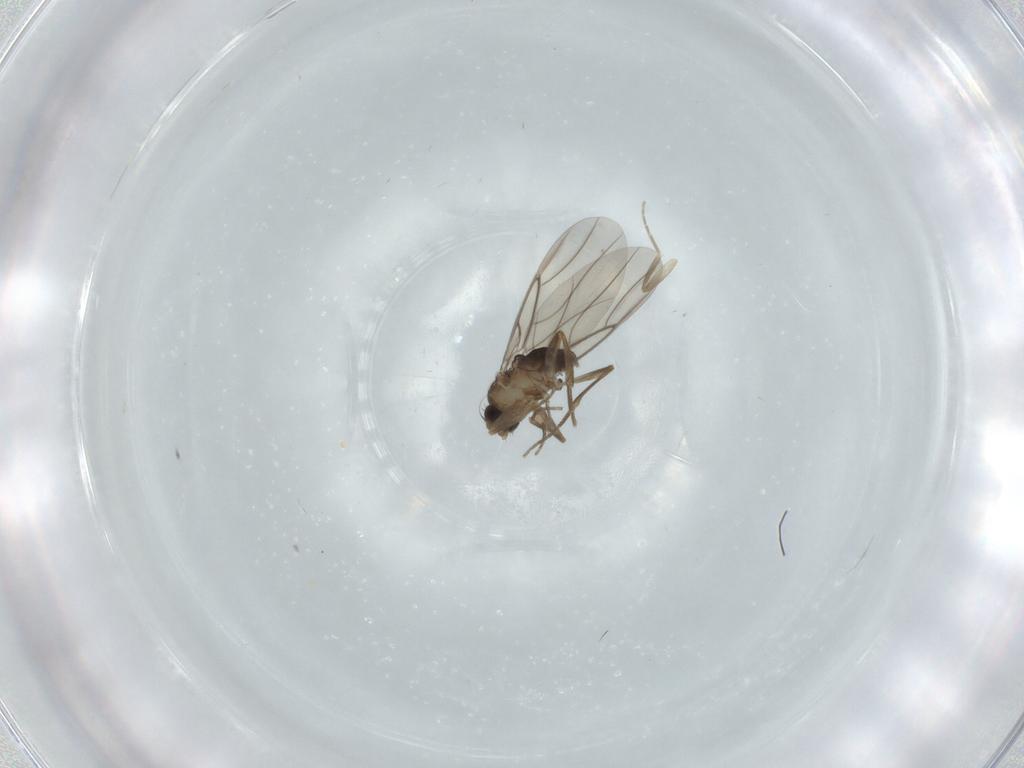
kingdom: Animalia
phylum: Arthropoda
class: Insecta
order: Diptera
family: Phoridae
